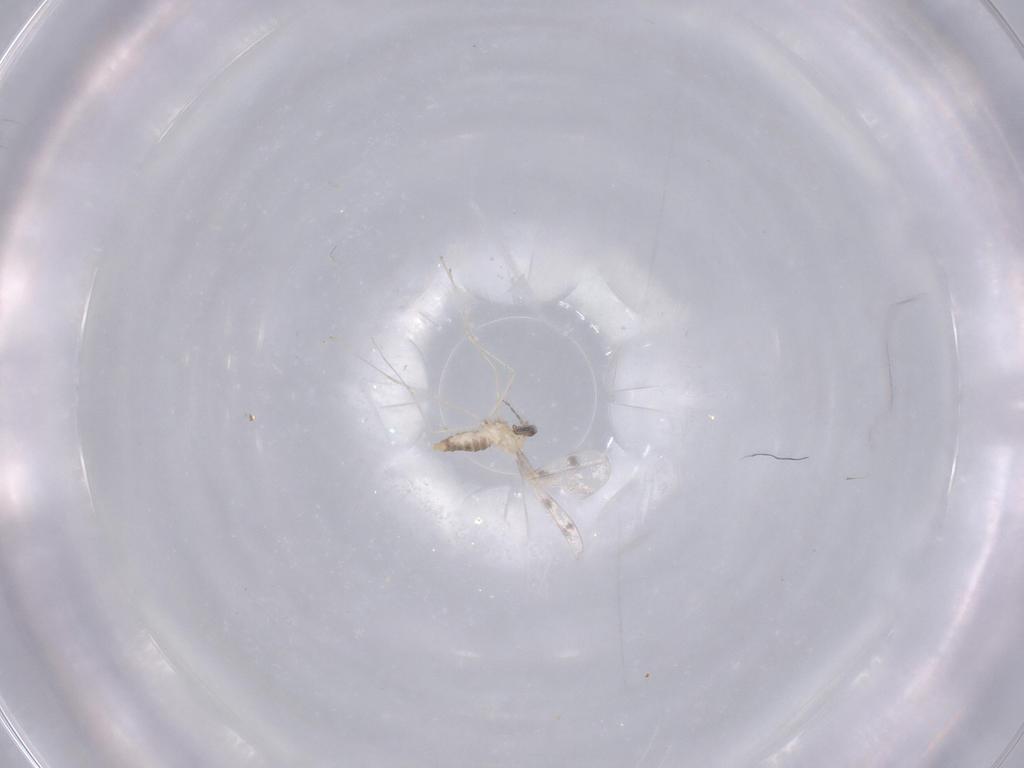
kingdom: Animalia
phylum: Arthropoda
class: Insecta
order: Diptera
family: Cecidomyiidae
